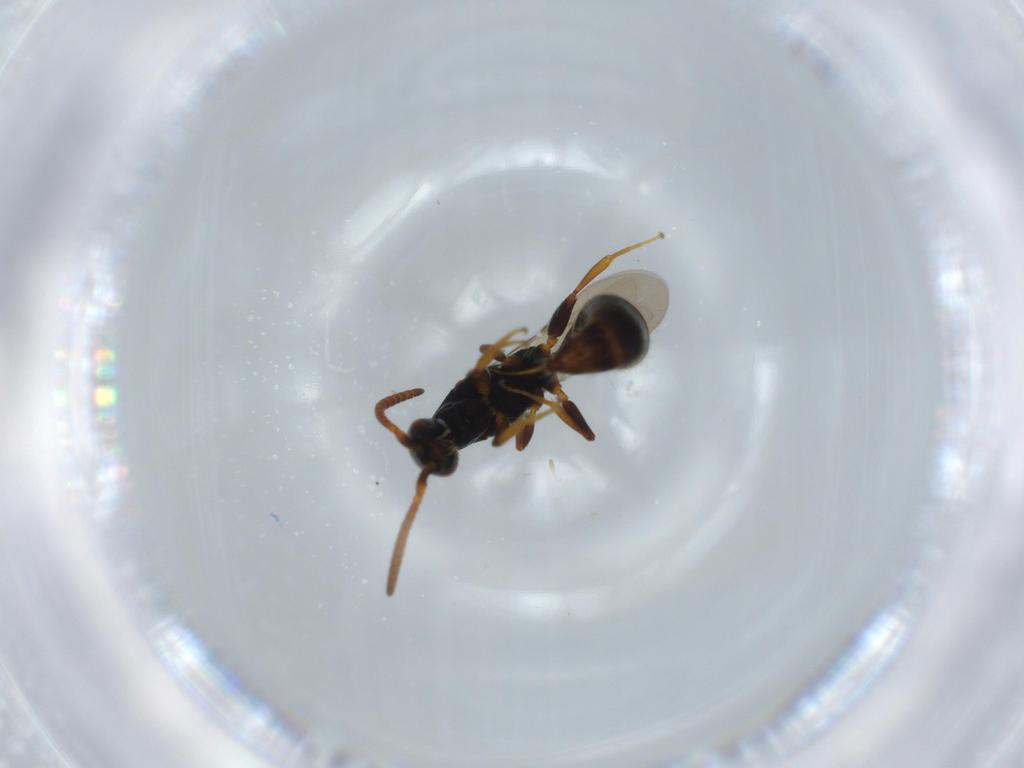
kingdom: Animalia
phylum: Arthropoda
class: Insecta
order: Hymenoptera
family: Bethylidae
